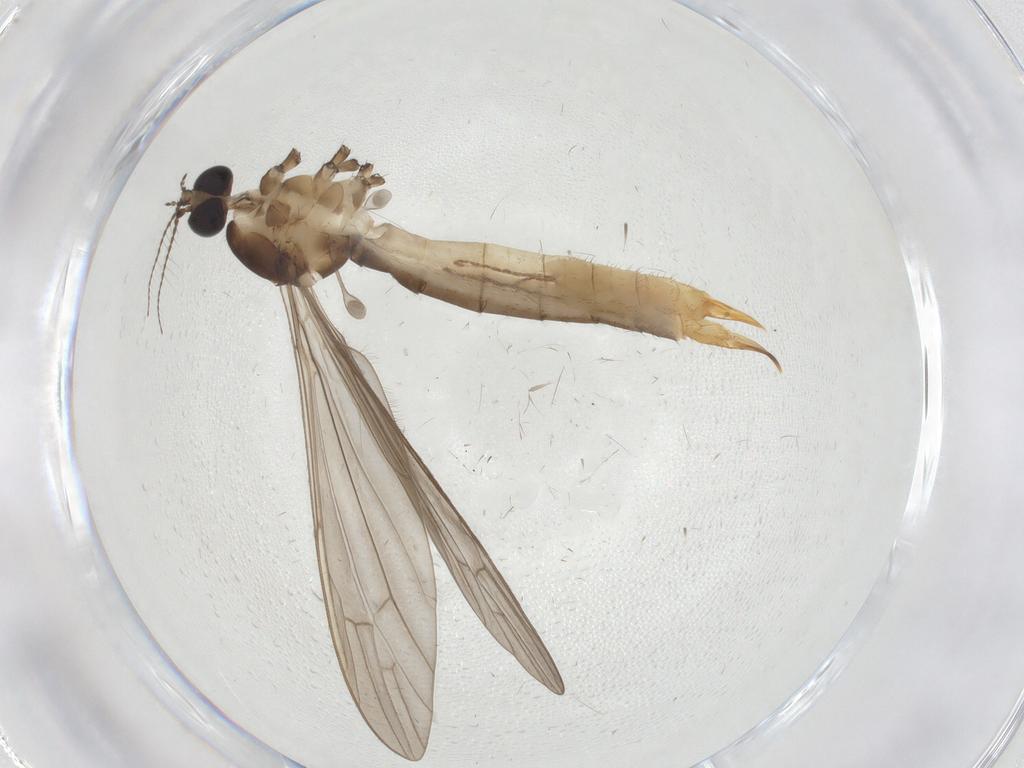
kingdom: Animalia
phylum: Arthropoda
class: Insecta
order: Diptera
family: Limoniidae
